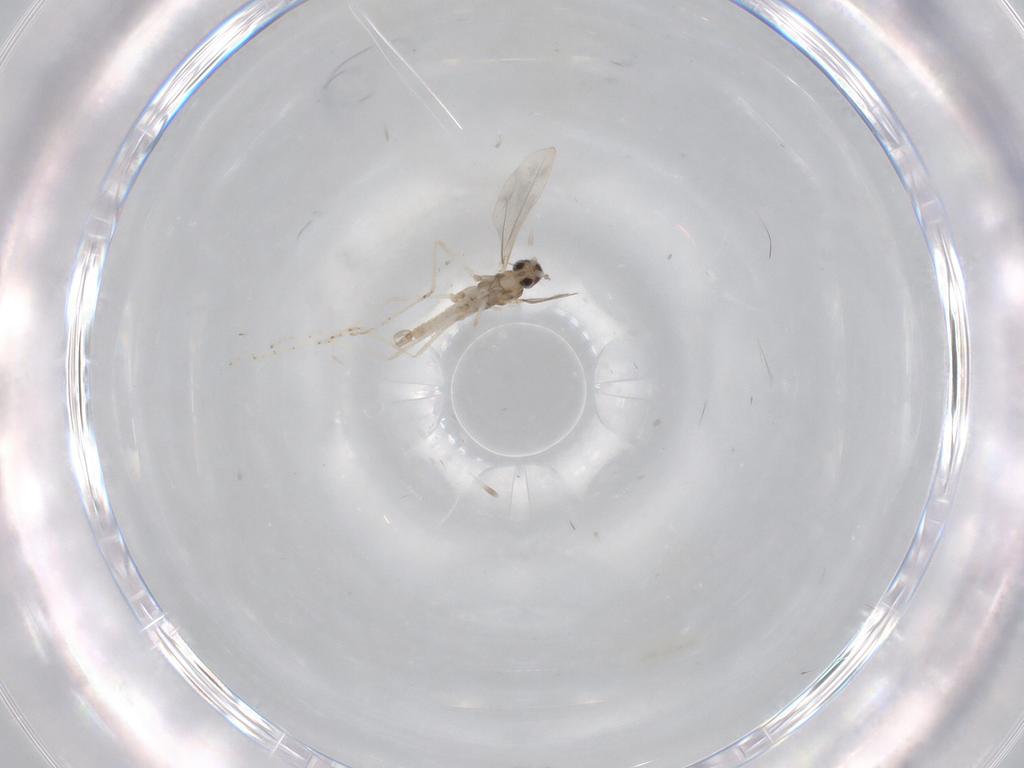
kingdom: Animalia
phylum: Arthropoda
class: Insecta
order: Diptera
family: Cecidomyiidae
